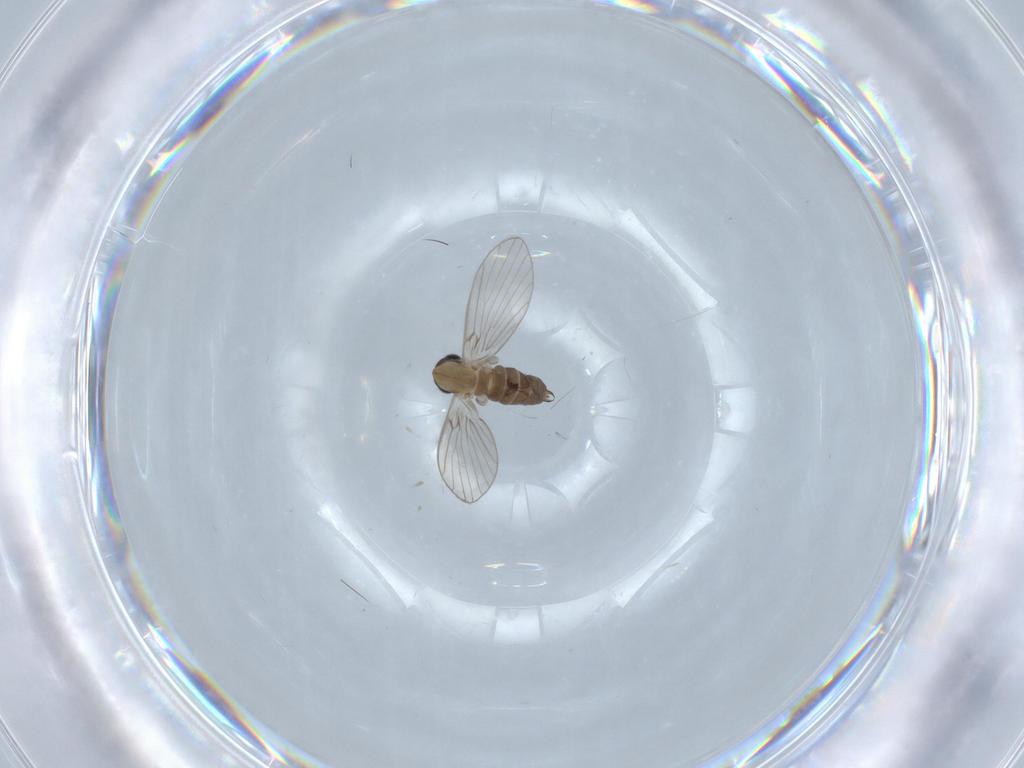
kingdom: Animalia
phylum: Arthropoda
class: Insecta
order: Diptera
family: Psychodidae
